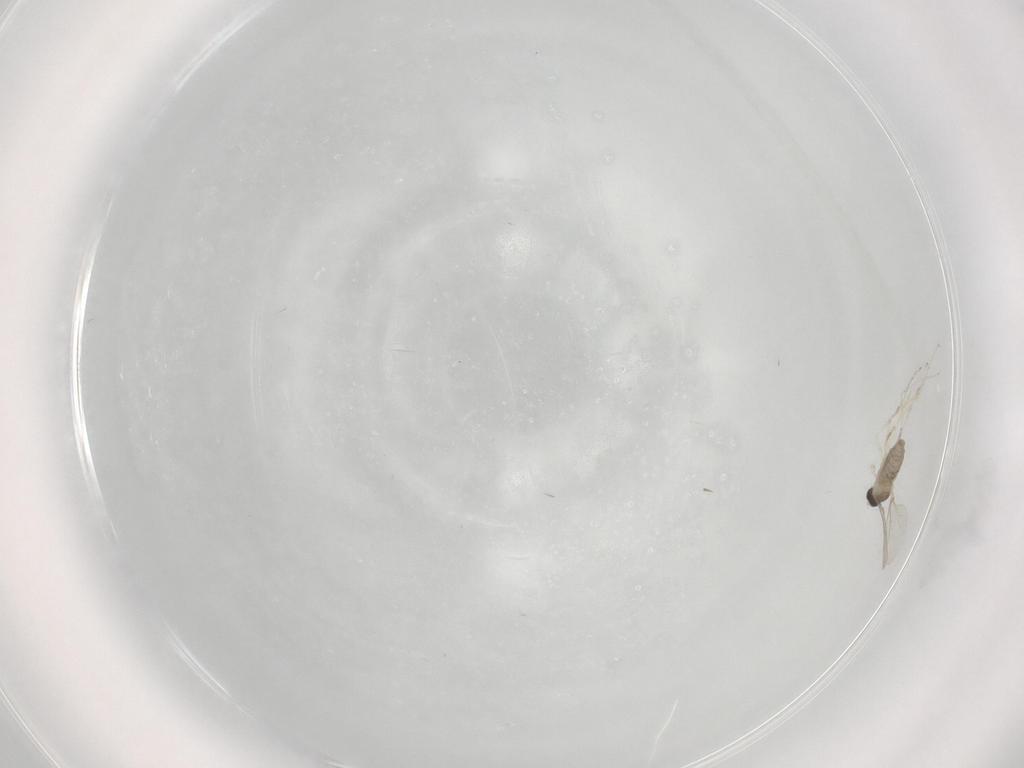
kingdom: Animalia
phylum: Arthropoda
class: Insecta
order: Diptera
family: Cecidomyiidae
